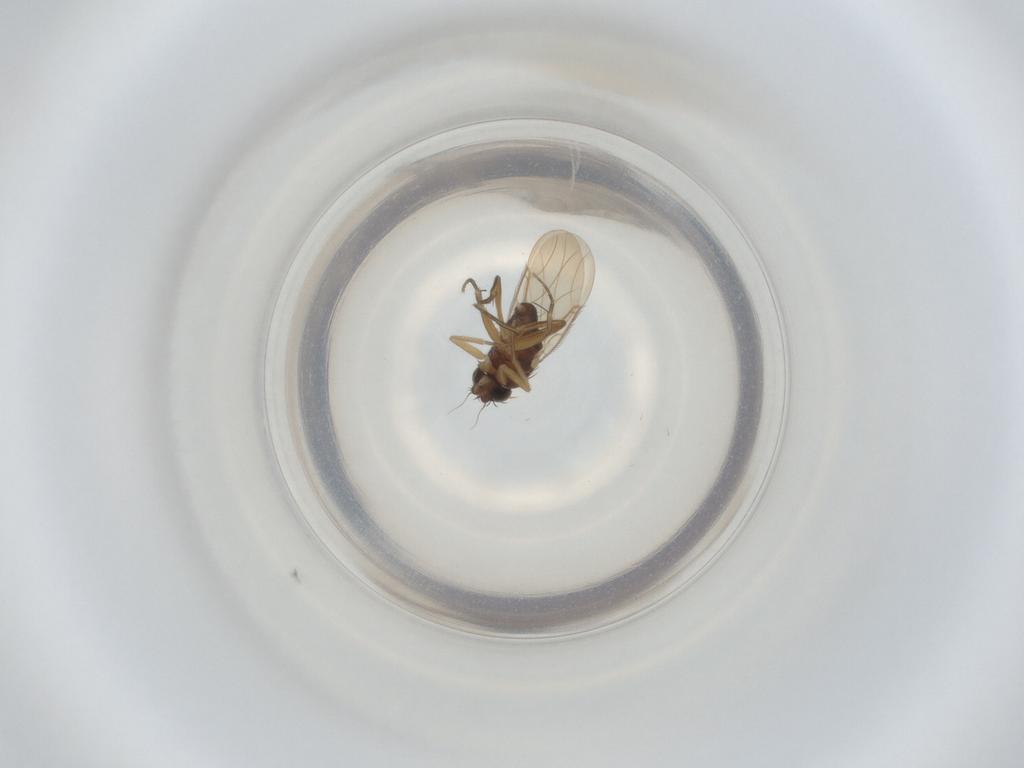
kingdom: Animalia
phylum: Arthropoda
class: Insecta
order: Diptera
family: Phoridae
